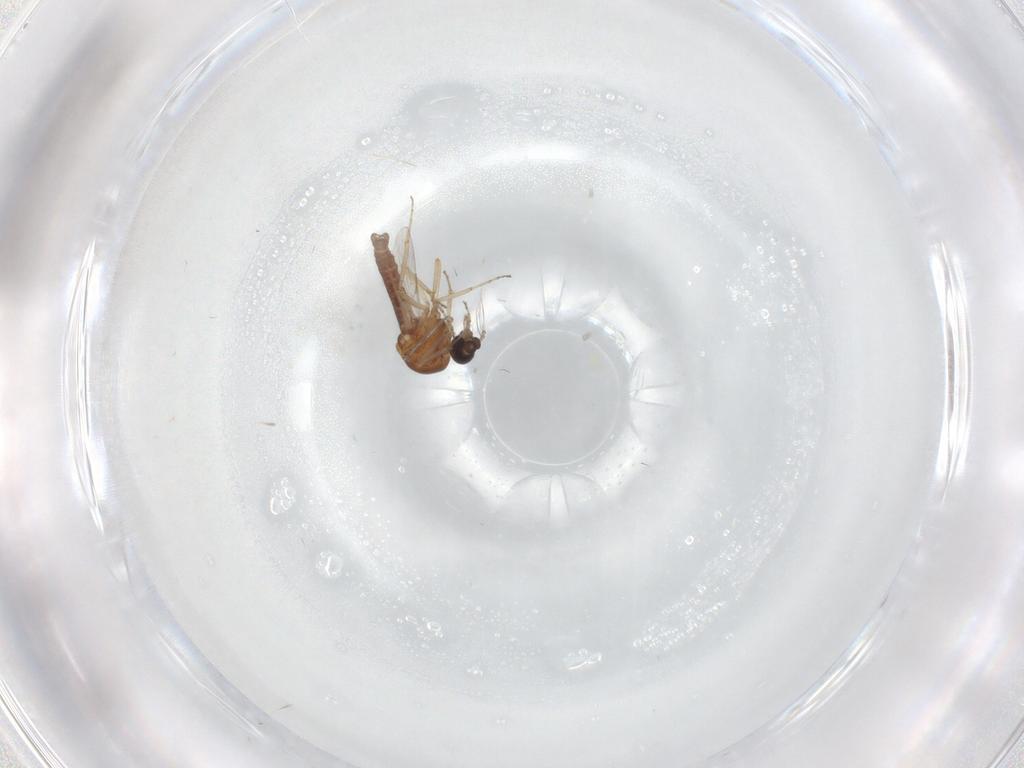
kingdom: Animalia
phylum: Arthropoda
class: Insecta
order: Diptera
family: Ceratopogonidae
